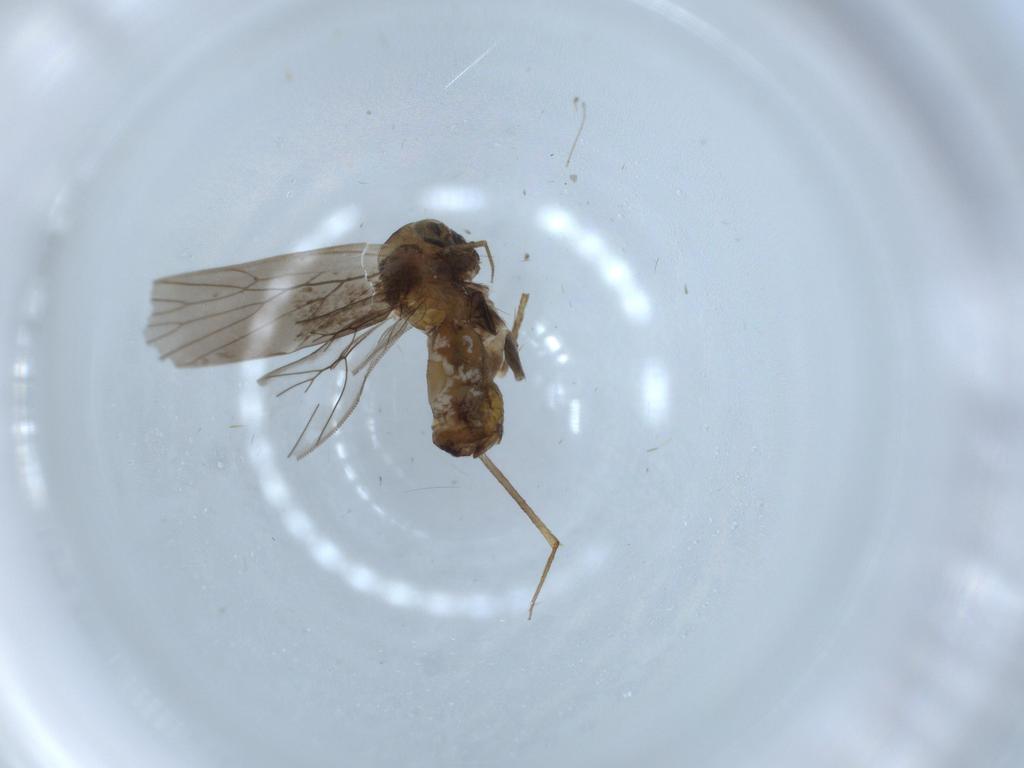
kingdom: Animalia
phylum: Arthropoda
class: Insecta
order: Psocodea
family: Lepidopsocidae
